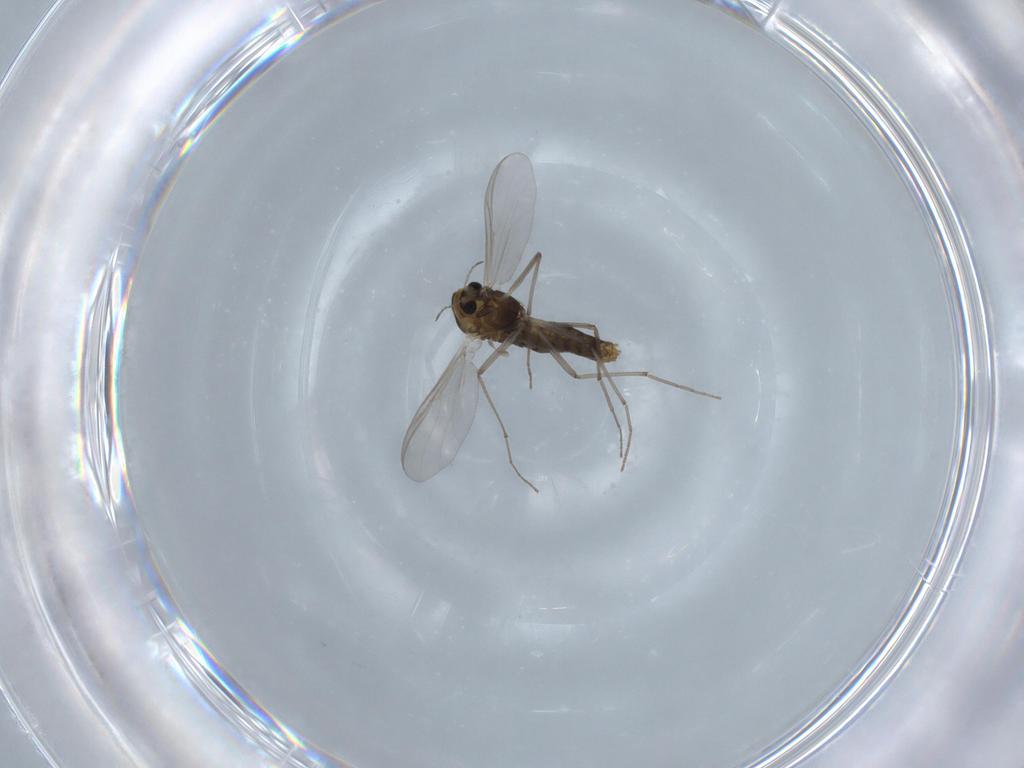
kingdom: Animalia
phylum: Arthropoda
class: Insecta
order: Diptera
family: Chironomidae
